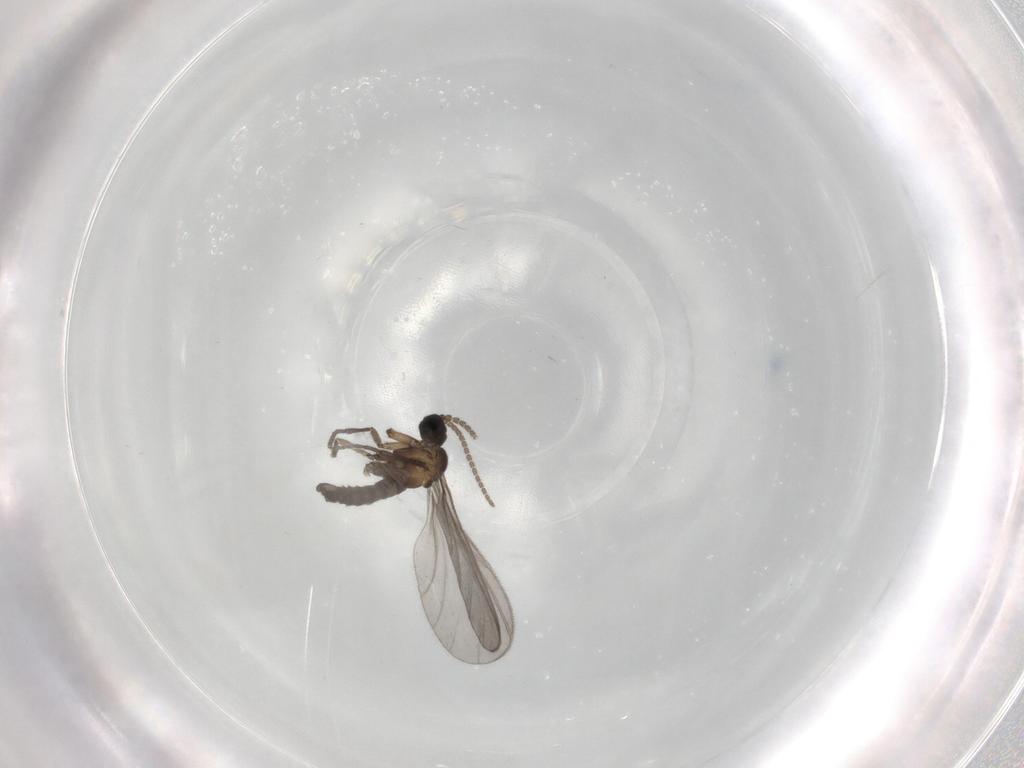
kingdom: Animalia
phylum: Arthropoda
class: Insecta
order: Diptera
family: Sciaridae
